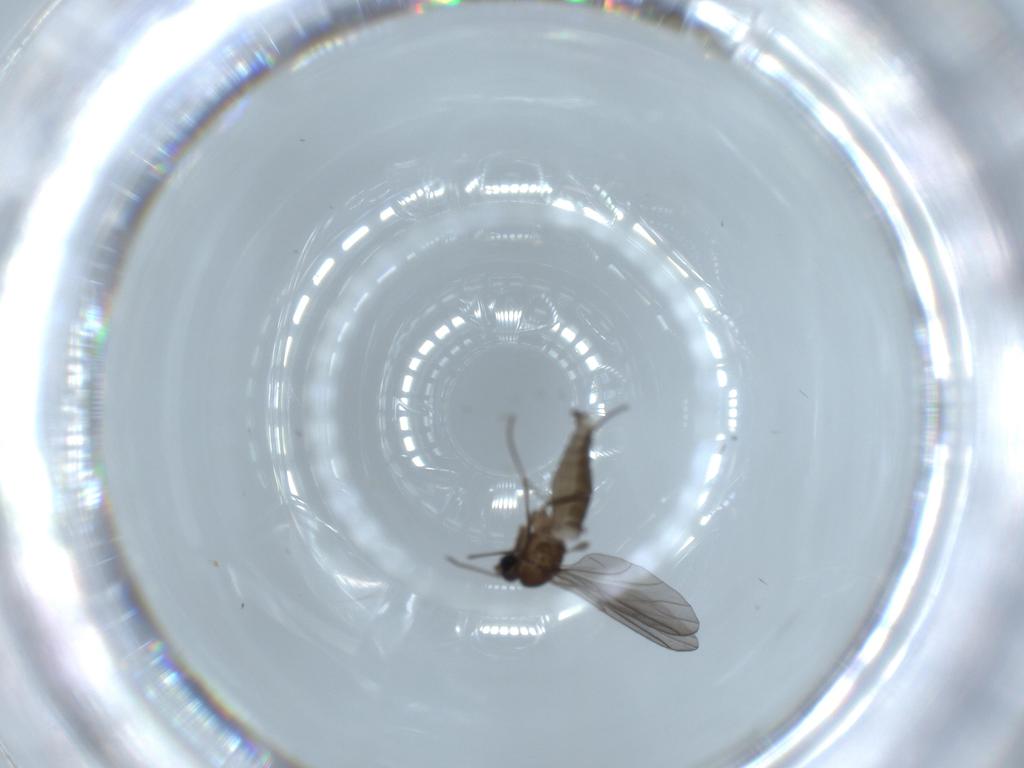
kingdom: Animalia
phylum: Arthropoda
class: Insecta
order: Diptera
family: Sciaridae
